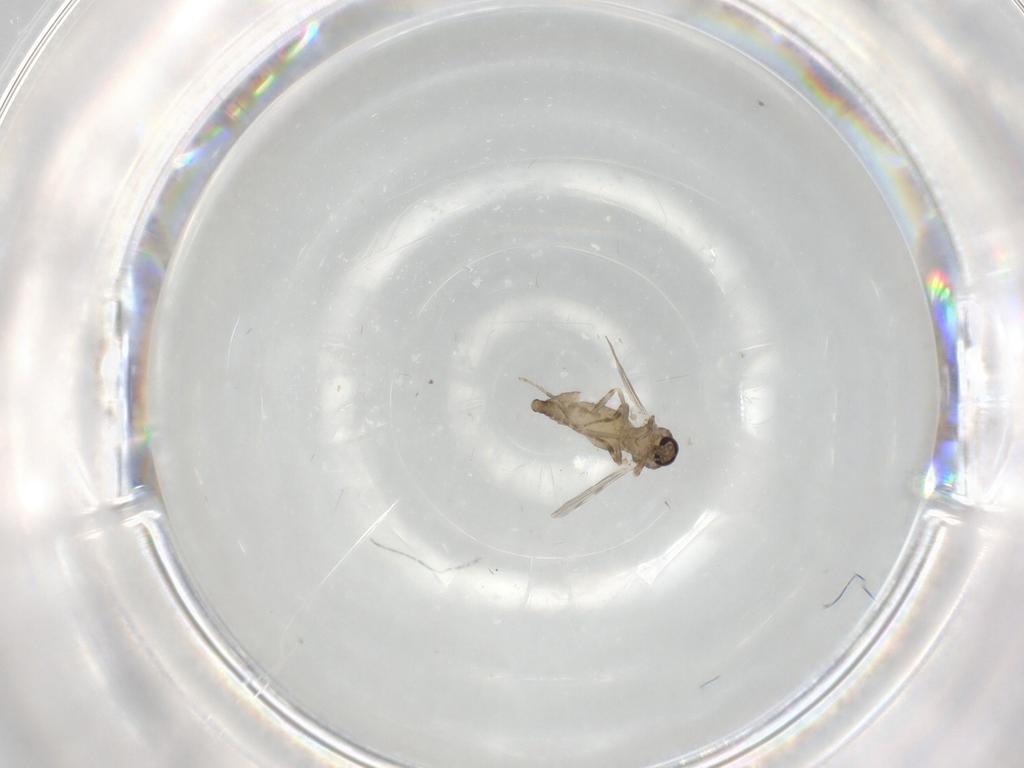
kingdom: Animalia
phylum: Arthropoda
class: Insecta
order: Diptera
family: Ceratopogonidae
